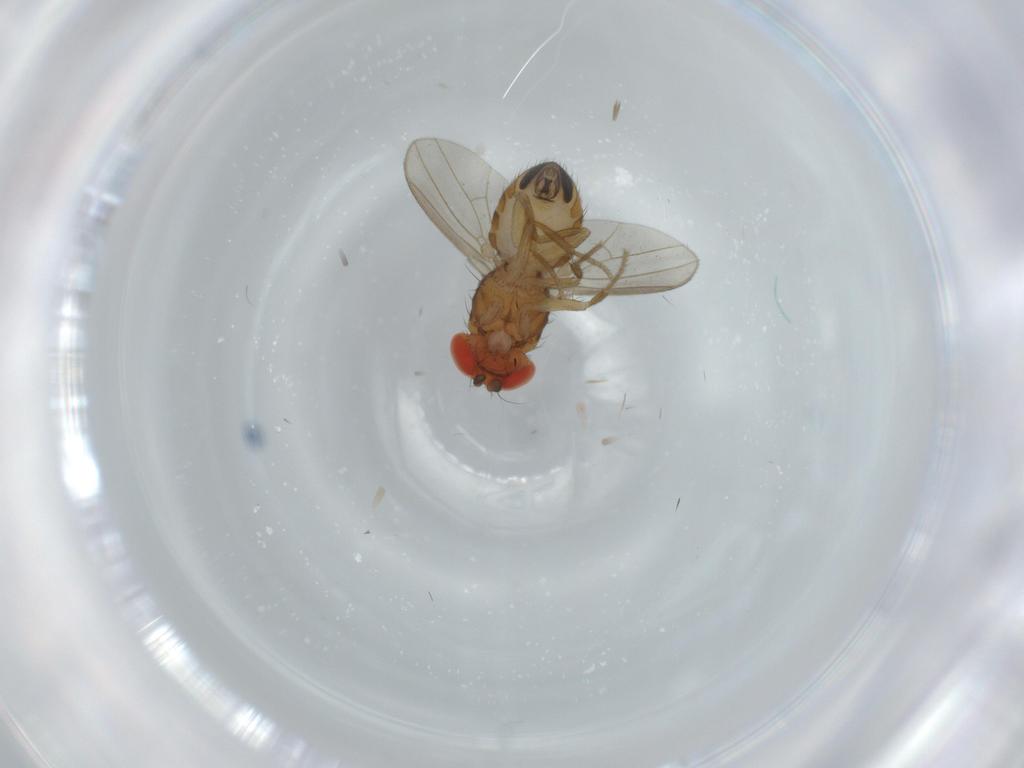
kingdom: Animalia
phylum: Arthropoda
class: Insecta
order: Diptera
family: Drosophilidae
